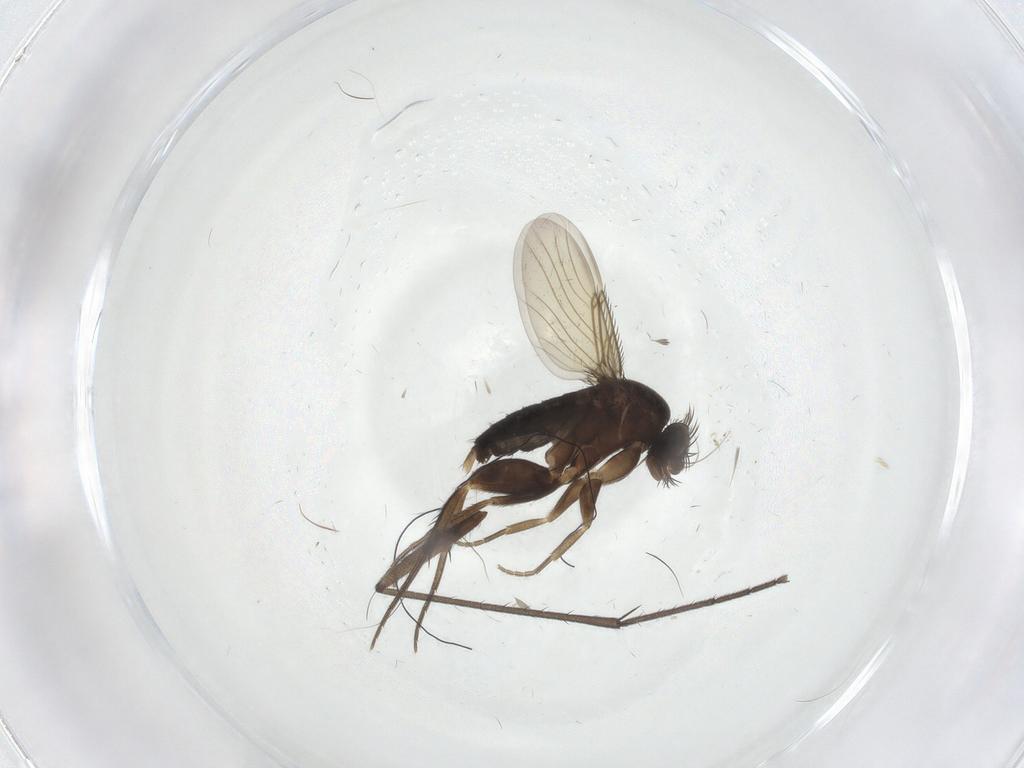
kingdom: Animalia
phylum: Arthropoda
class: Insecta
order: Diptera
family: Phoridae
